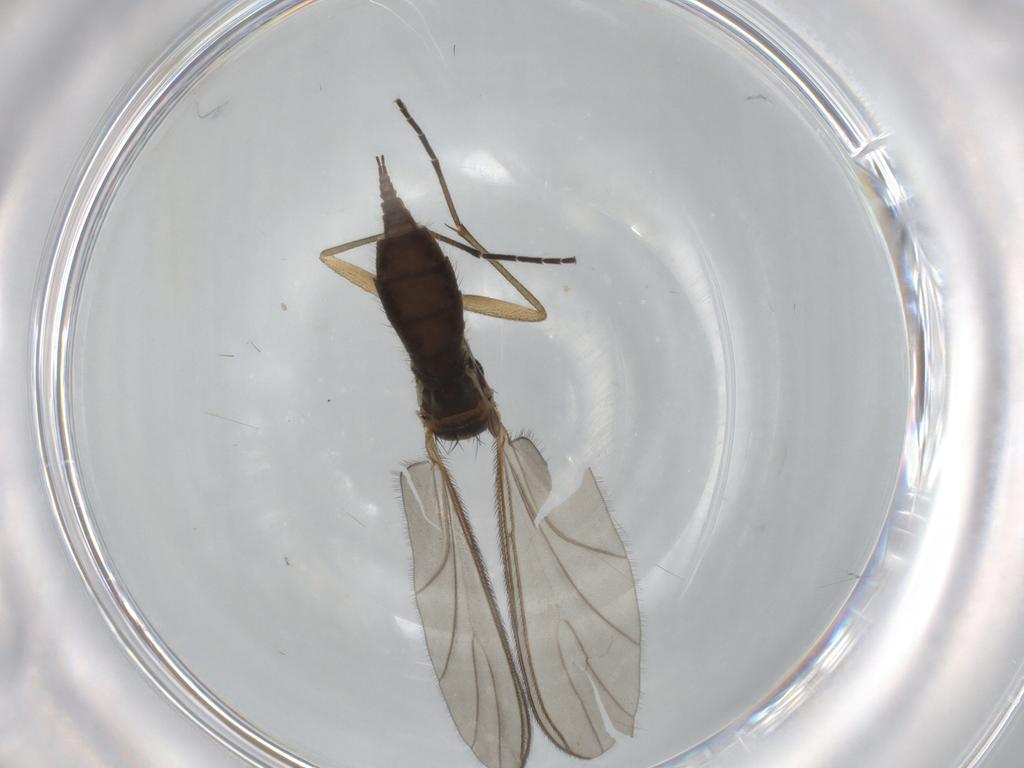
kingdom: Animalia
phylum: Arthropoda
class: Insecta
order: Diptera
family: Sciaridae
